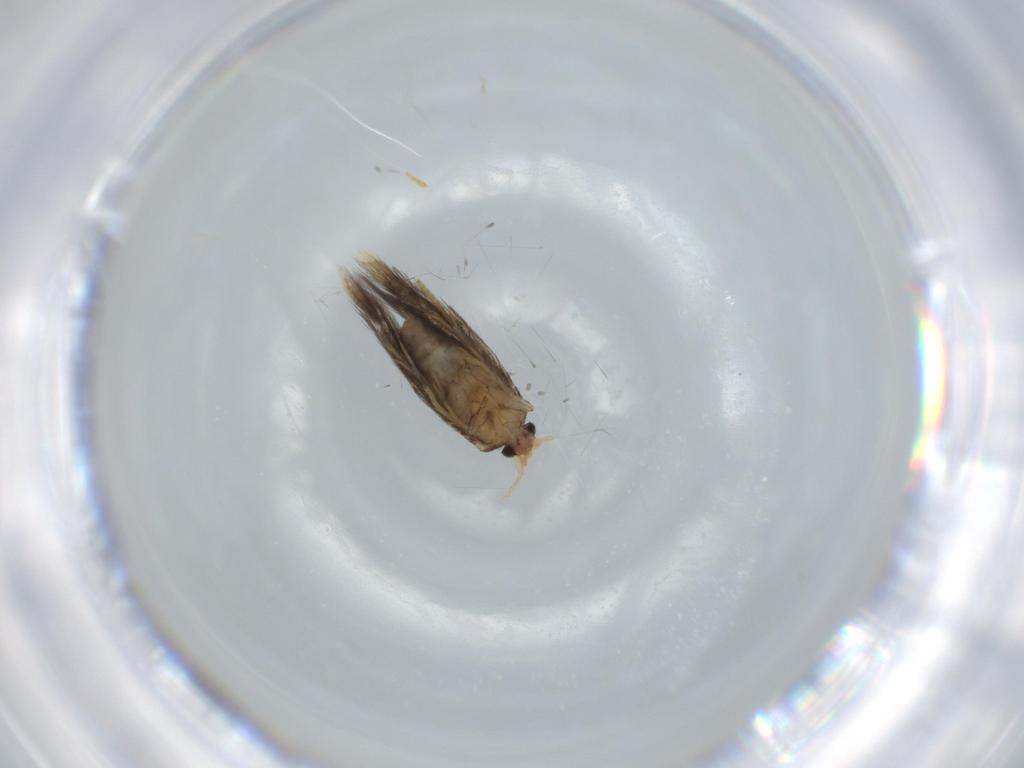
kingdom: Animalia
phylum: Arthropoda
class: Insecta
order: Lepidoptera
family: Nepticulidae
